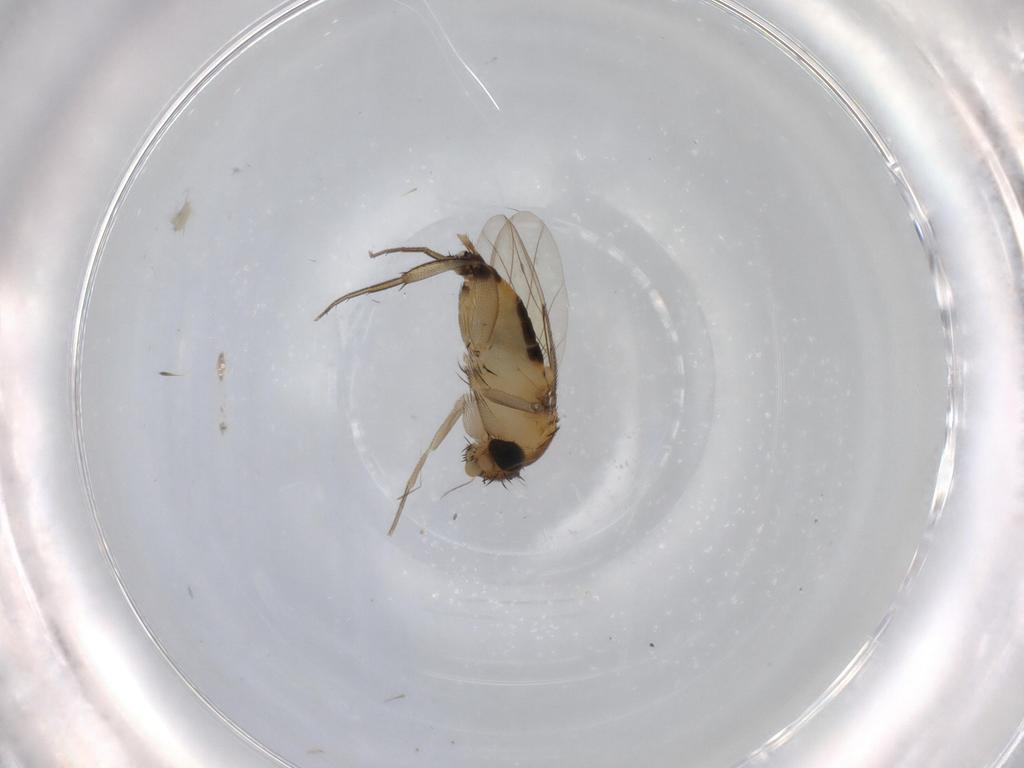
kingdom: Animalia
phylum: Arthropoda
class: Insecta
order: Diptera
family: Phoridae
